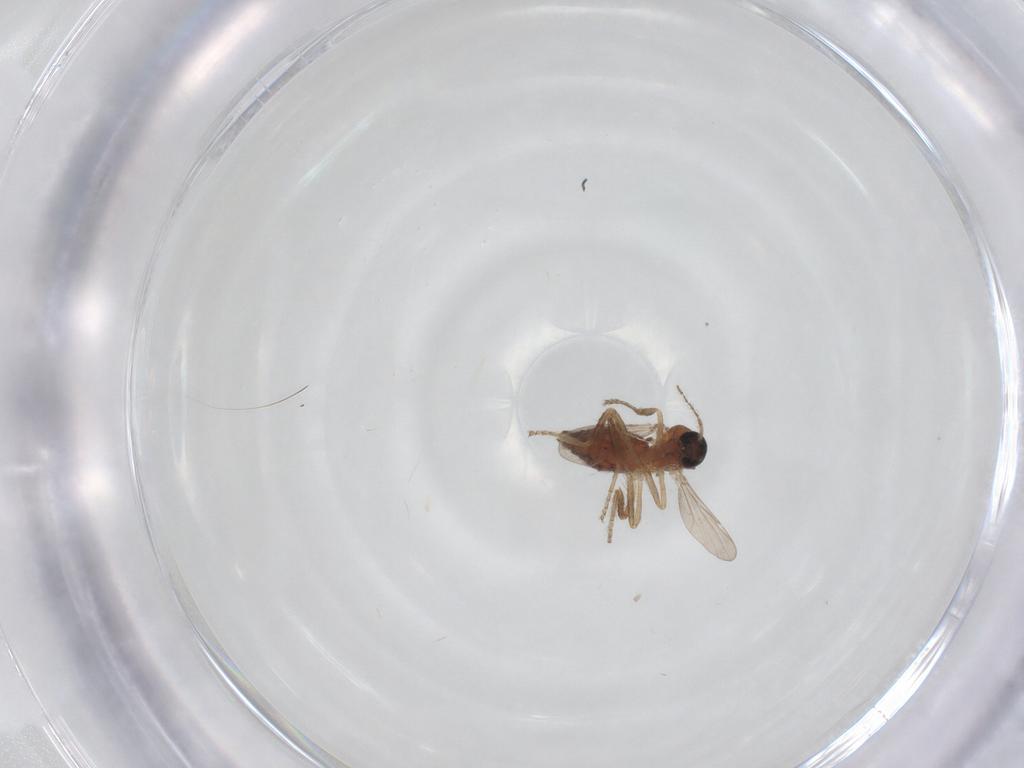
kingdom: Animalia
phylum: Arthropoda
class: Insecta
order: Diptera
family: Ceratopogonidae
